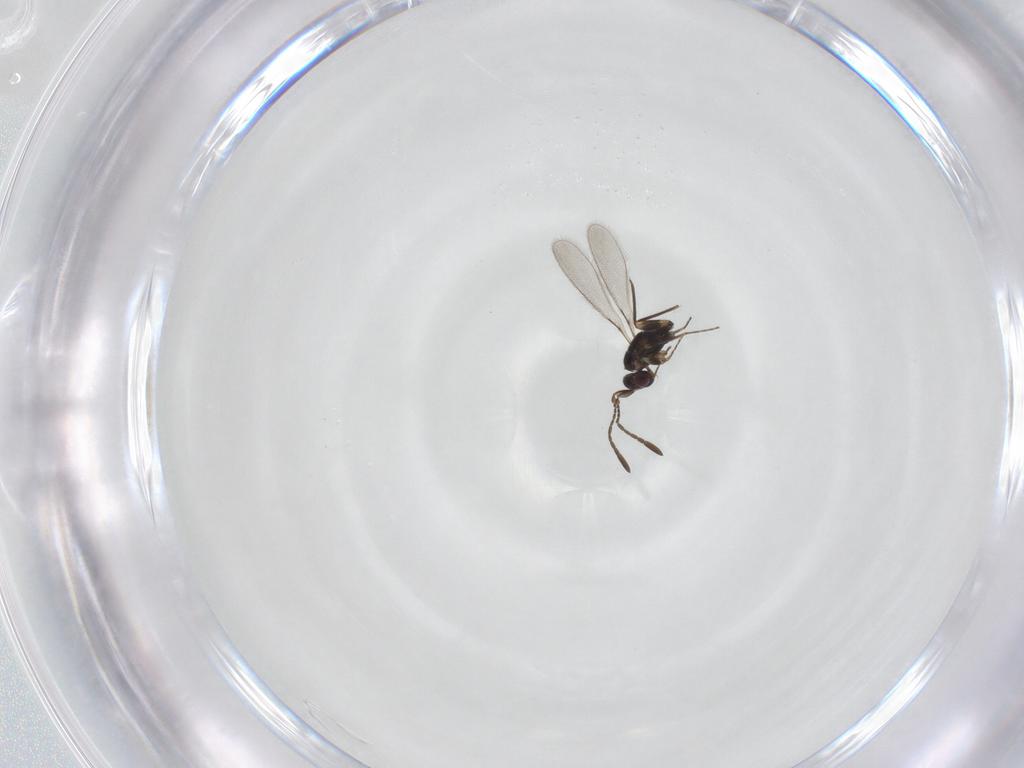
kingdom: Animalia
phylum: Arthropoda
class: Insecta
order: Hymenoptera
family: Mymaridae
